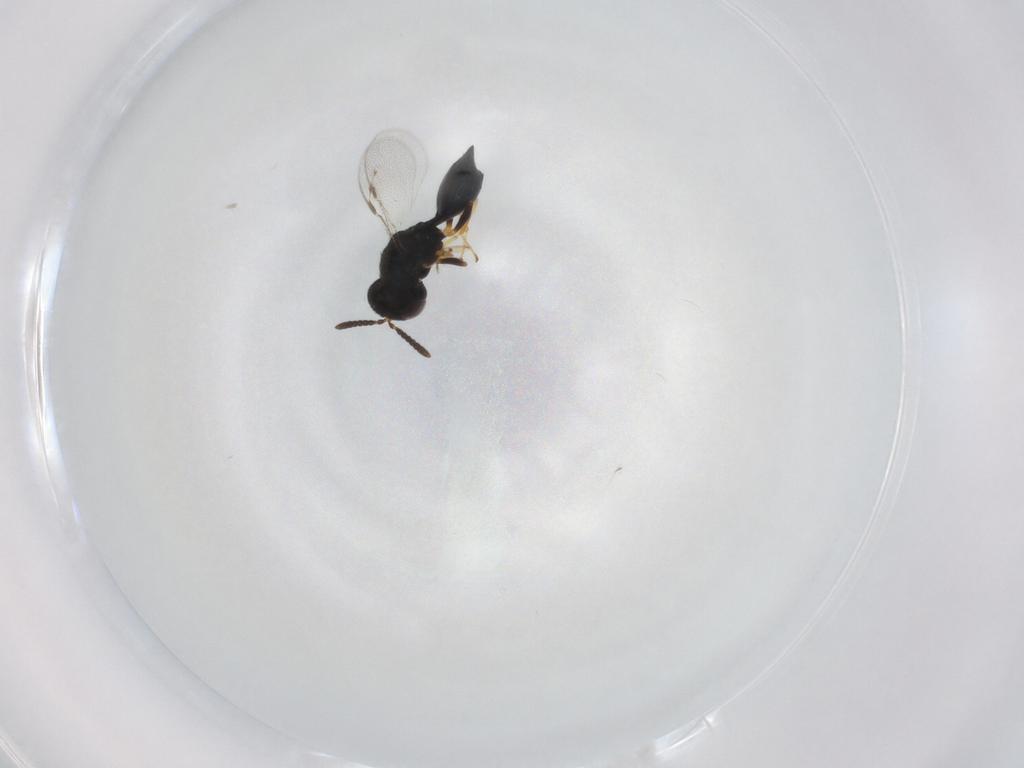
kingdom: Animalia
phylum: Arthropoda
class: Insecta
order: Hymenoptera
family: Pteromalidae
